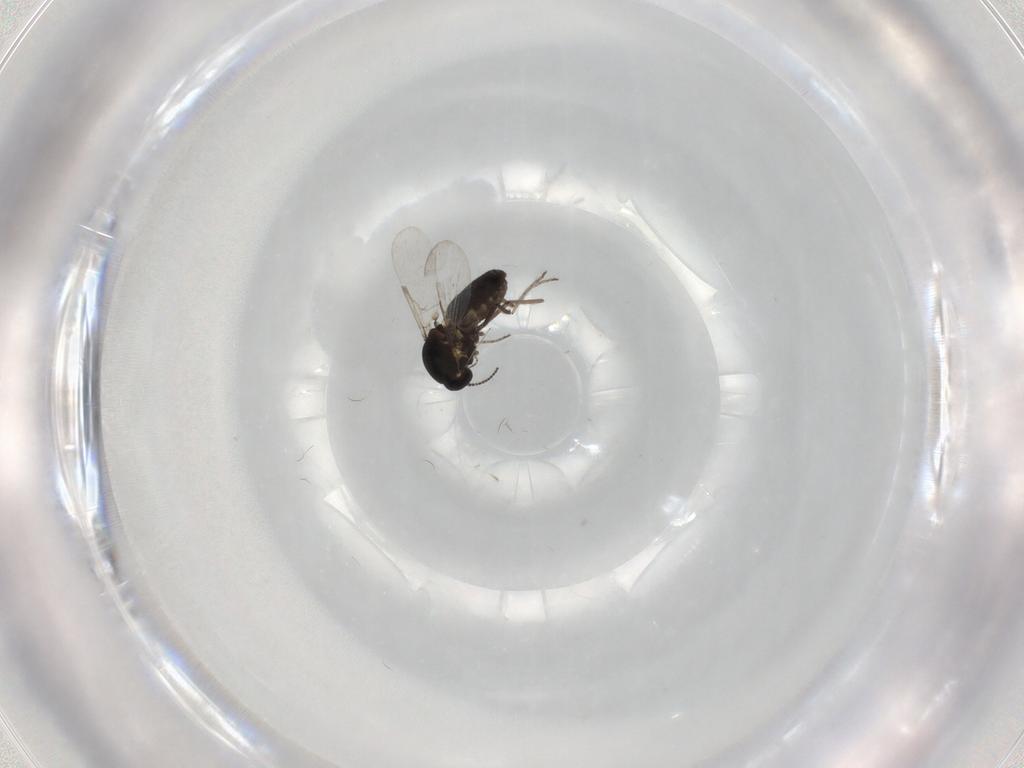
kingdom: Animalia
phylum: Arthropoda
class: Insecta
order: Diptera
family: Ceratopogonidae
